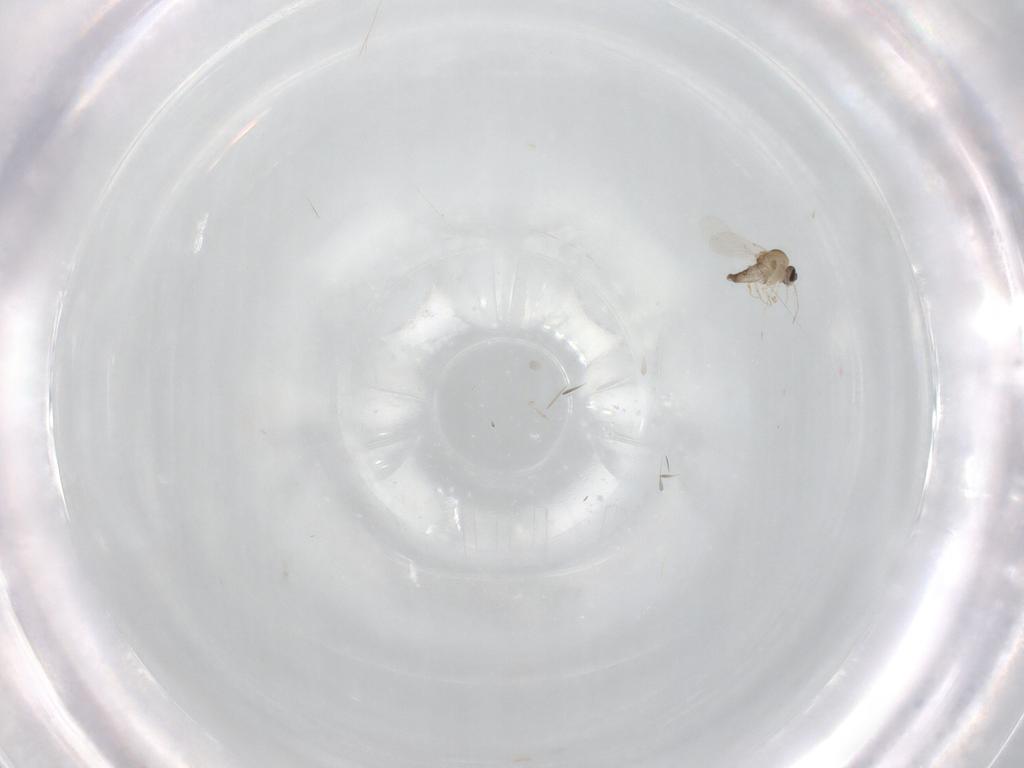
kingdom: Animalia
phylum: Arthropoda
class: Insecta
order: Diptera
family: Ceratopogonidae
